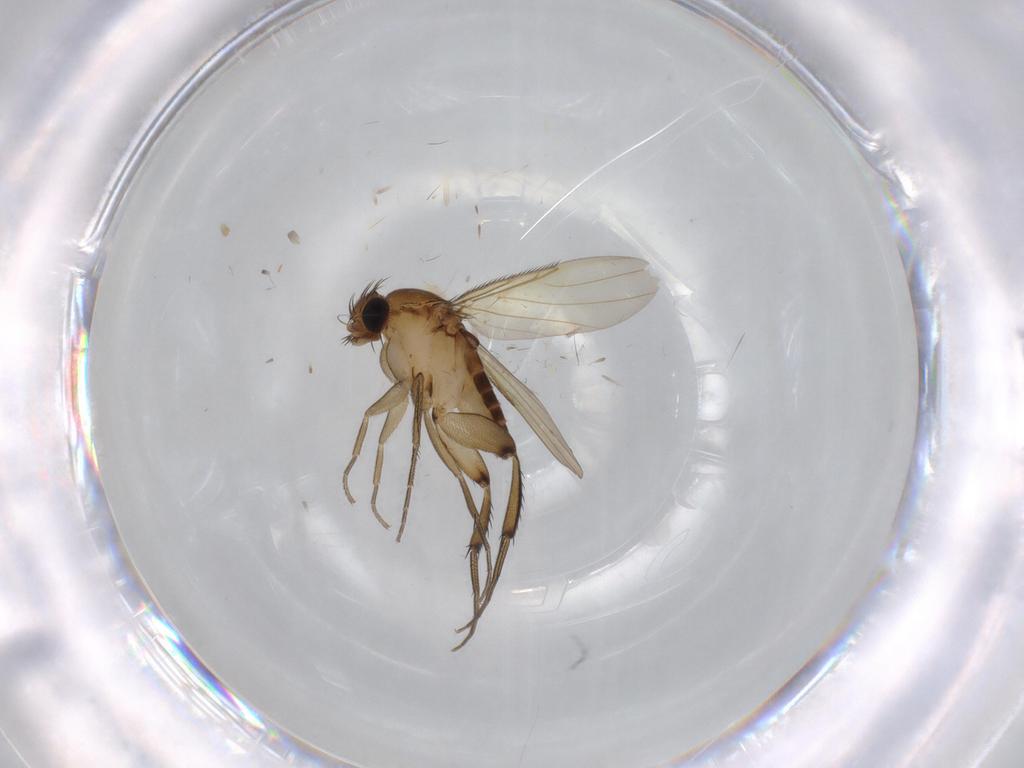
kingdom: Animalia
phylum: Arthropoda
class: Insecta
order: Diptera
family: Phoridae
